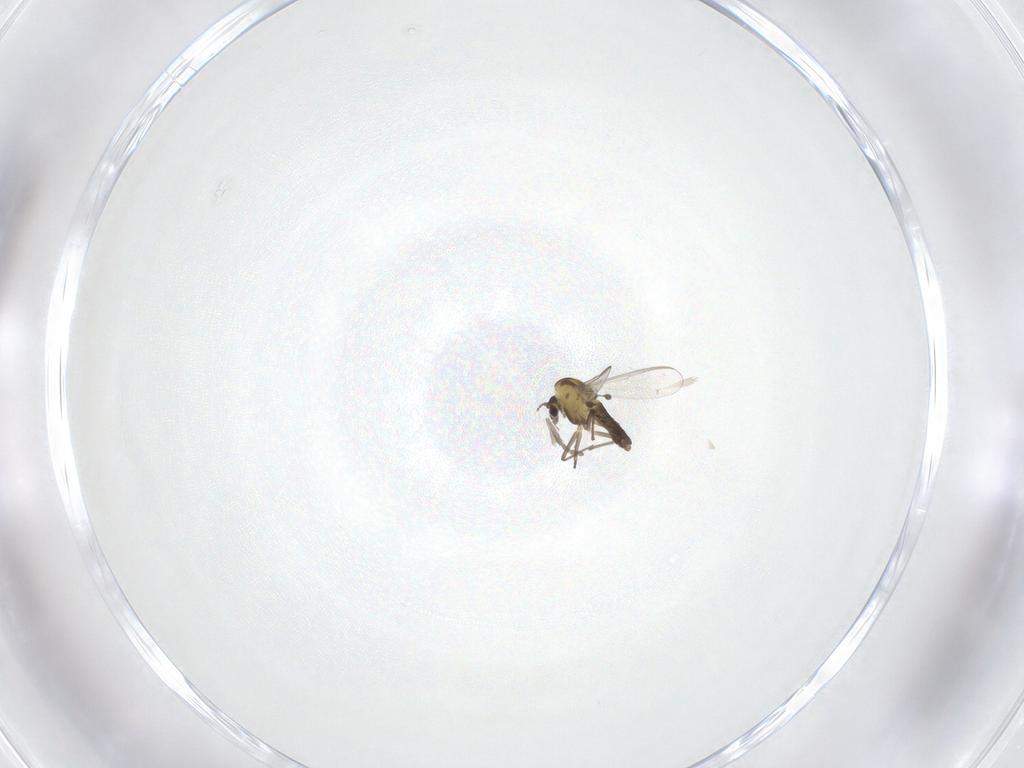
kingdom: Animalia
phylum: Arthropoda
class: Insecta
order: Diptera
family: Chironomidae
